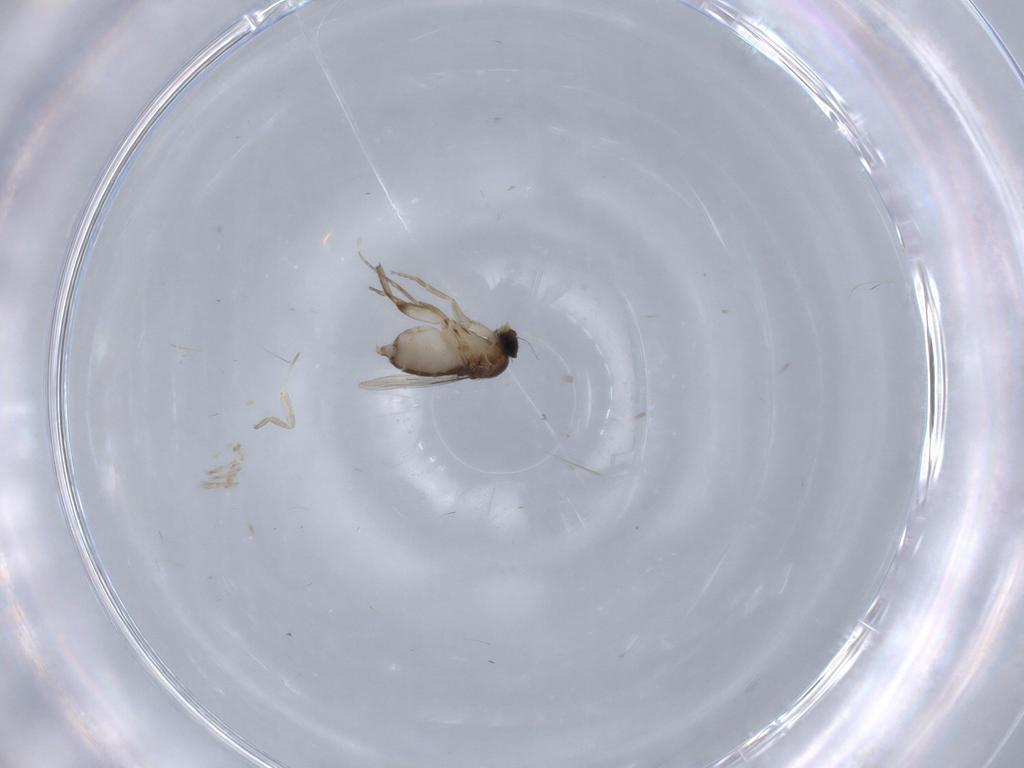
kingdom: Animalia
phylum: Arthropoda
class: Insecta
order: Diptera
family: Phoridae
